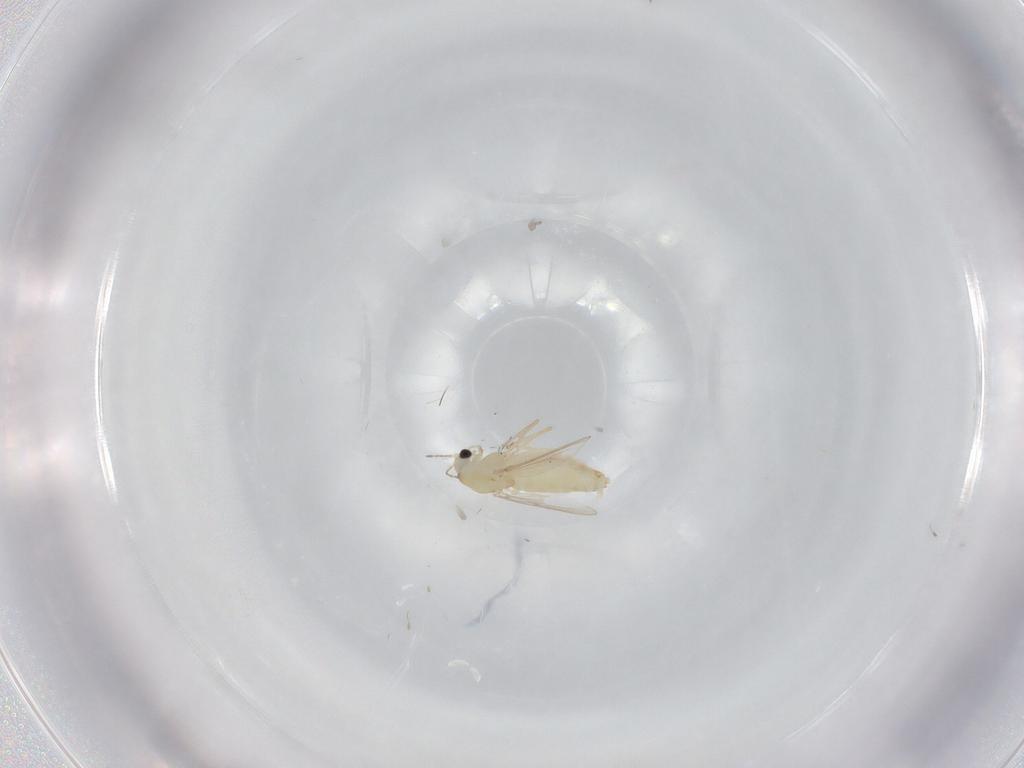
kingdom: Animalia
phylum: Arthropoda
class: Insecta
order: Diptera
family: Chironomidae
